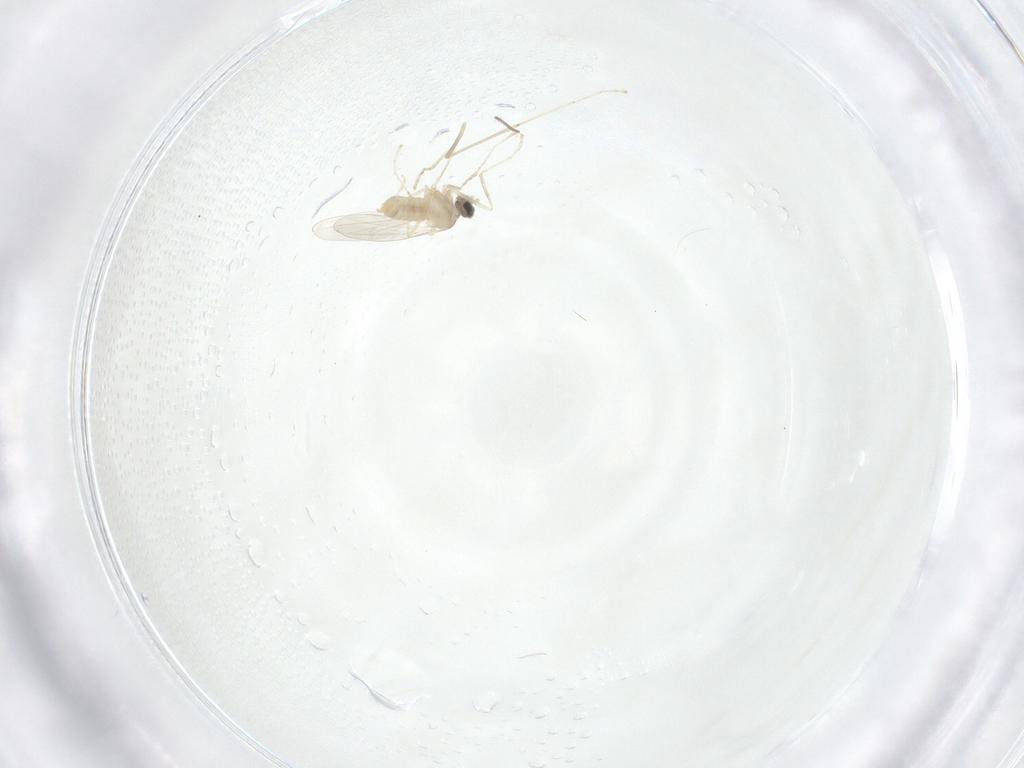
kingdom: Animalia
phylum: Arthropoda
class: Insecta
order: Diptera
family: Cecidomyiidae
